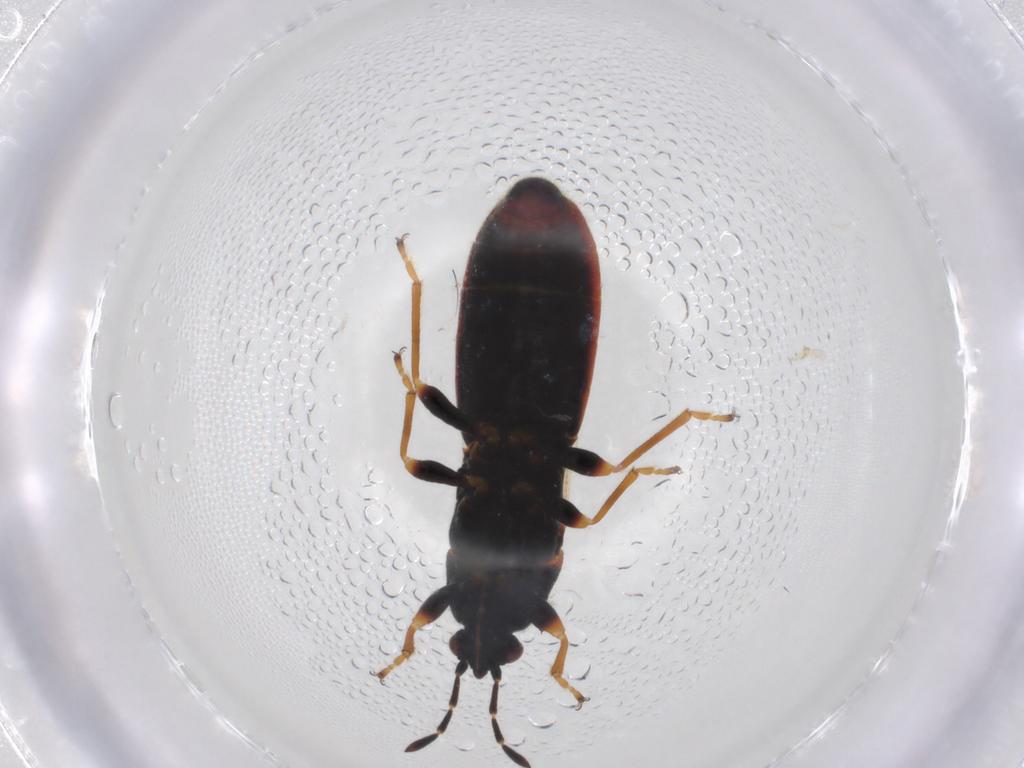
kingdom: Animalia
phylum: Arthropoda
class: Insecta
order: Hemiptera
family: Blissidae
